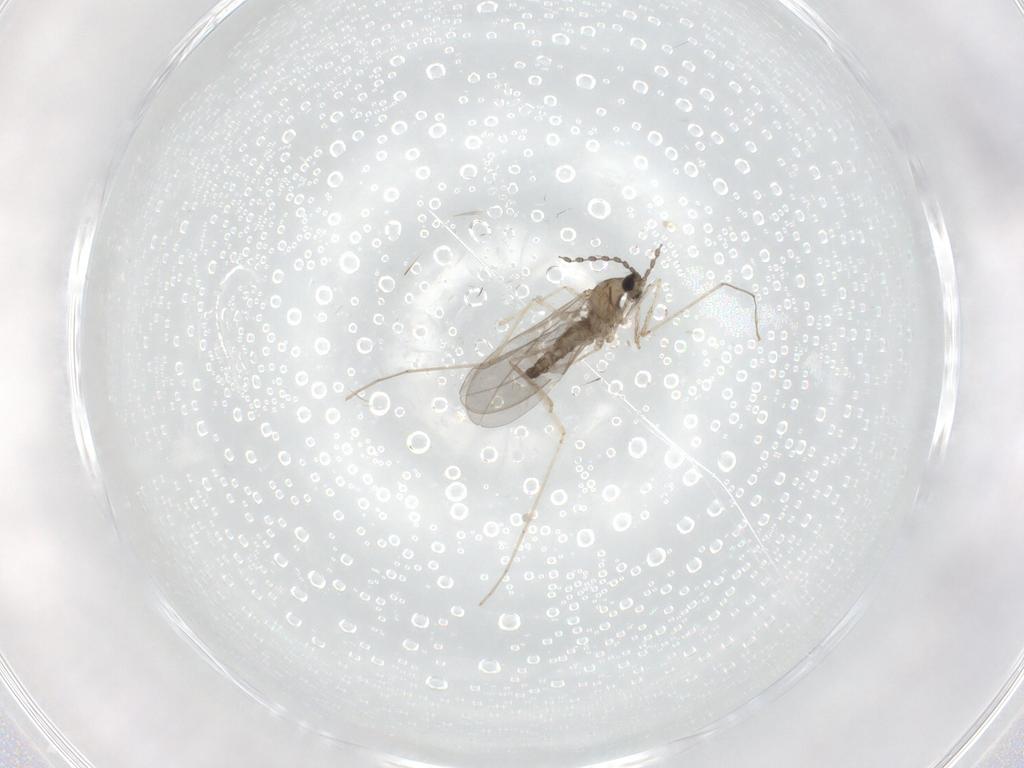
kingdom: Animalia
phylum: Arthropoda
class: Insecta
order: Diptera
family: Cecidomyiidae
